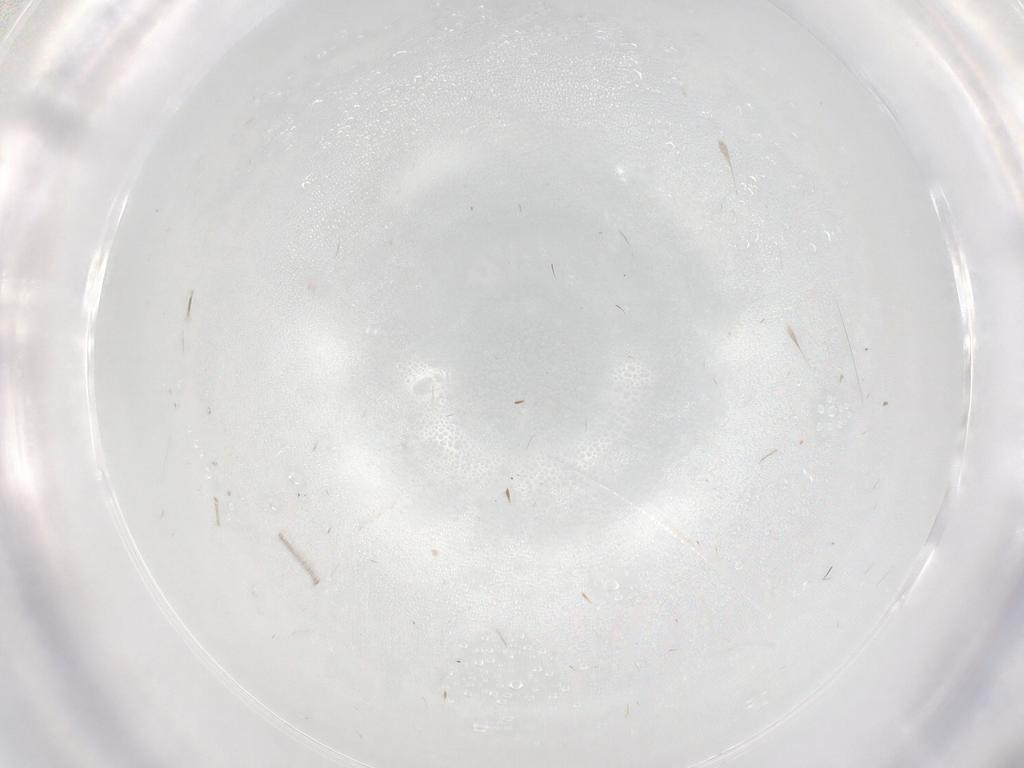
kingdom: Animalia
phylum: Arthropoda
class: Insecta
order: Diptera
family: Cecidomyiidae
